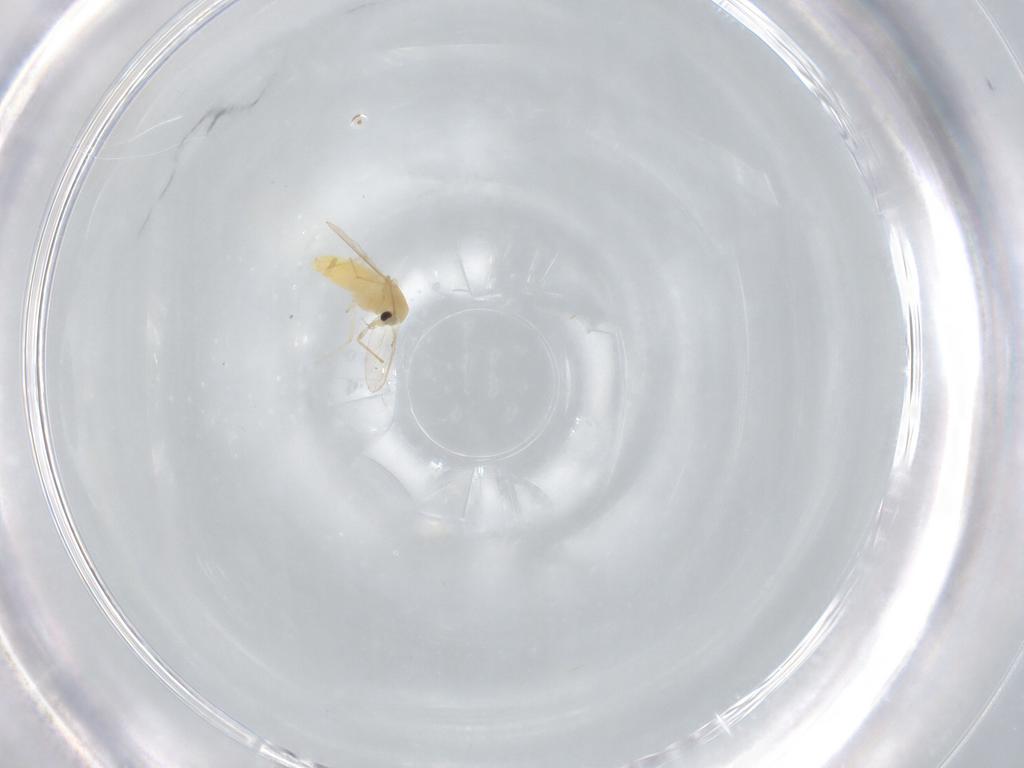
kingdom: Animalia
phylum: Arthropoda
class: Insecta
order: Diptera
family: Chironomidae
